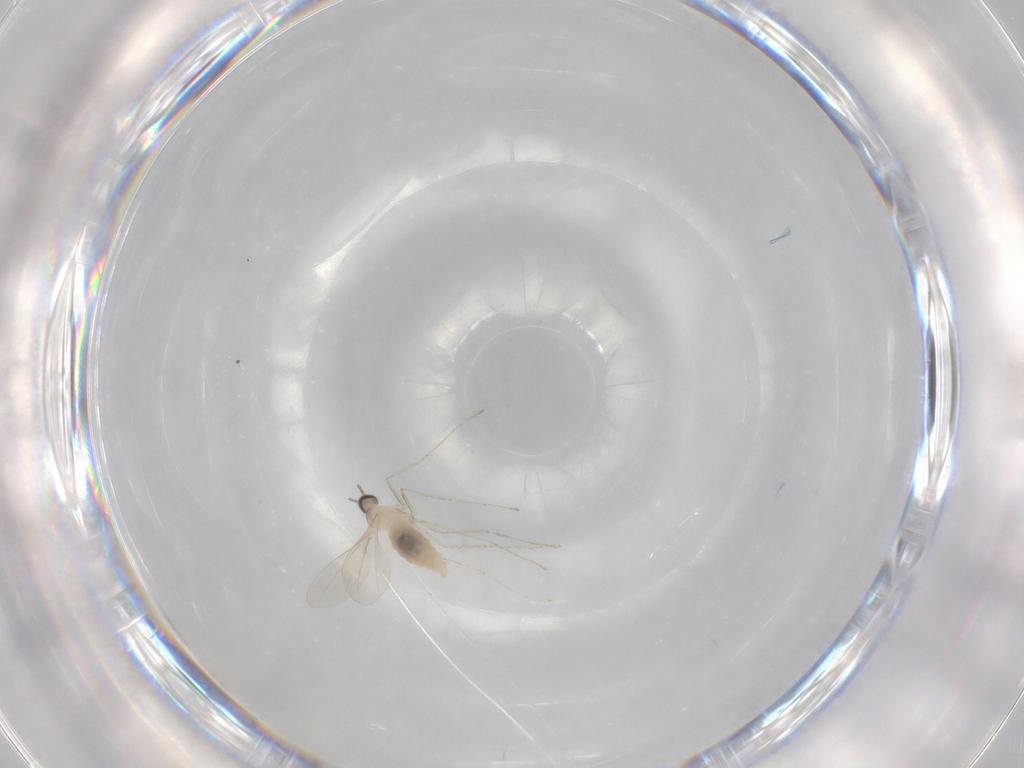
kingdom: Animalia
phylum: Arthropoda
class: Insecta
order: Diptera
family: Cecidomyiidae
